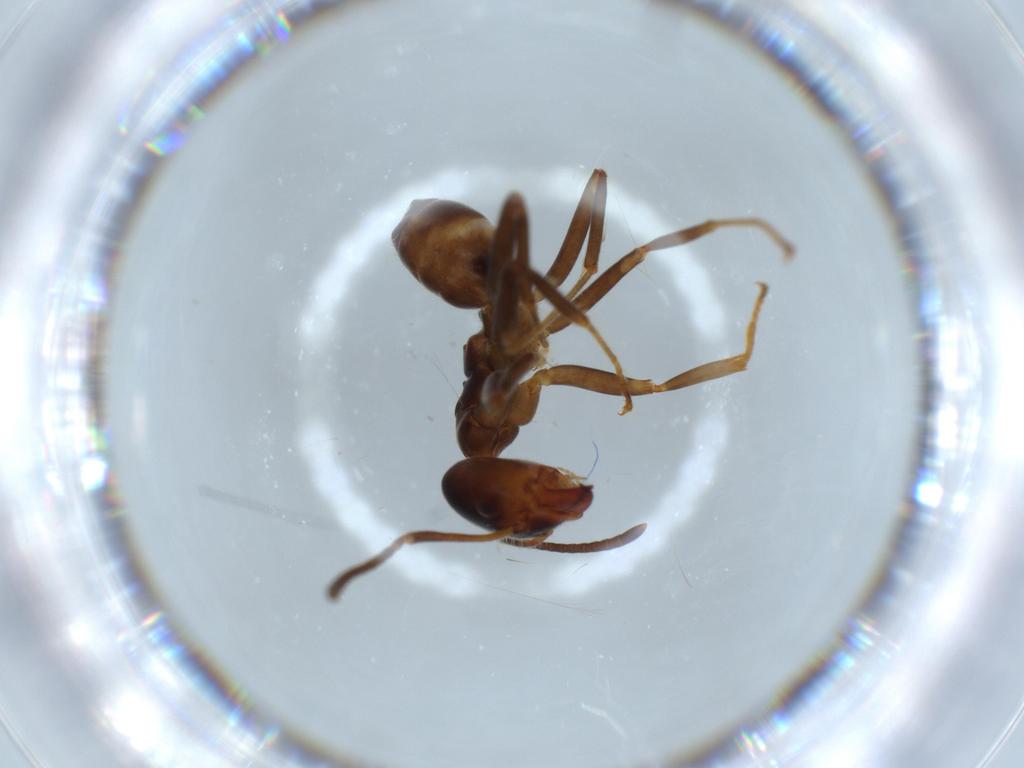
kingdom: Animalia
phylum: Arthropoda
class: Insecta
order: Hymenoptera
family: Formicidae
